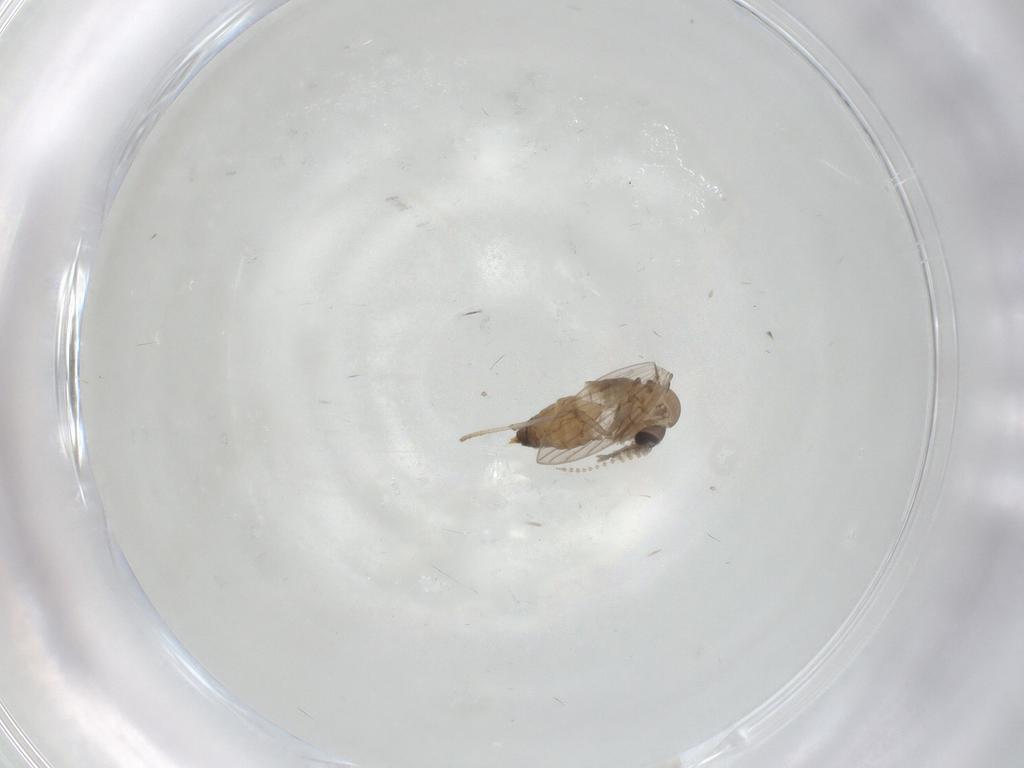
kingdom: Animalia
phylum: Arthropoda
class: Insecta
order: Diptera
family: Psychodidae
